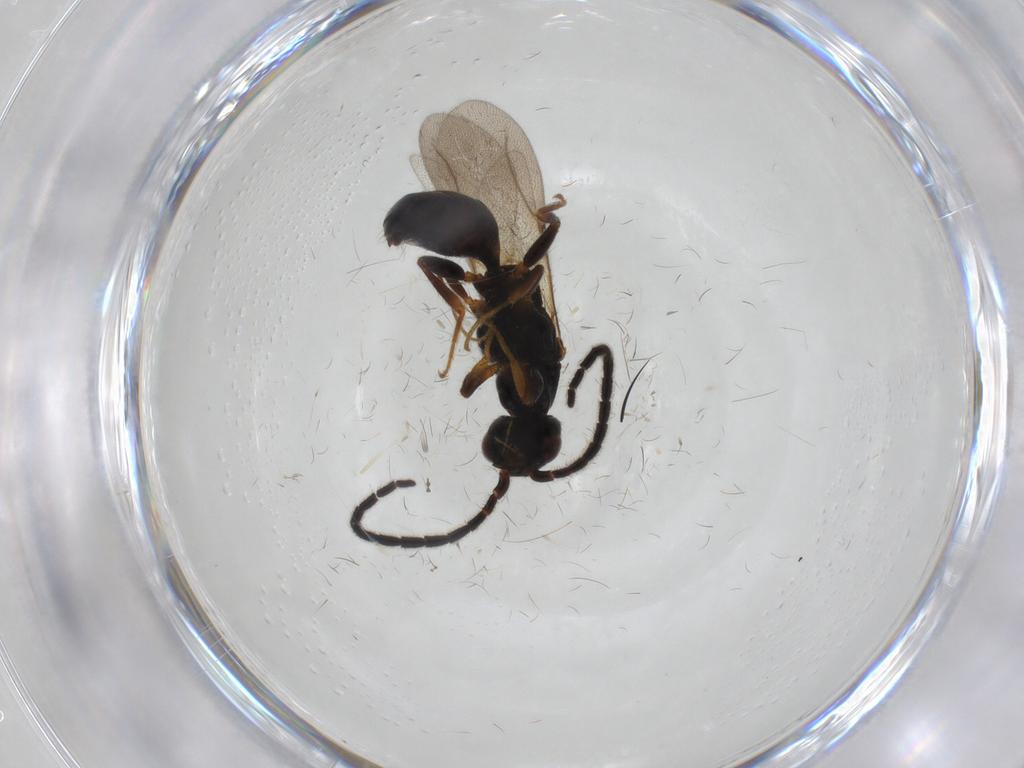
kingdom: Animalia
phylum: Arthropoda
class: Insecta
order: Hymenoptera
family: Bethylidae
